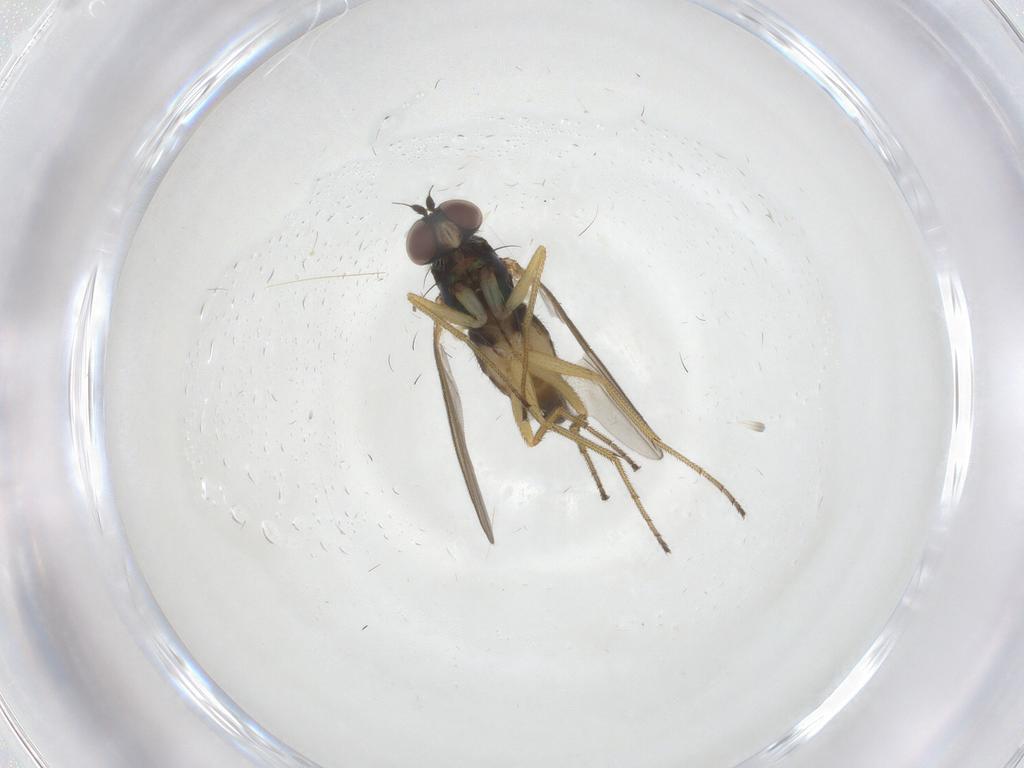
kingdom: Animalia
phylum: Arthropoda
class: Insecta
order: Diptera
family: Dolichopodidae
